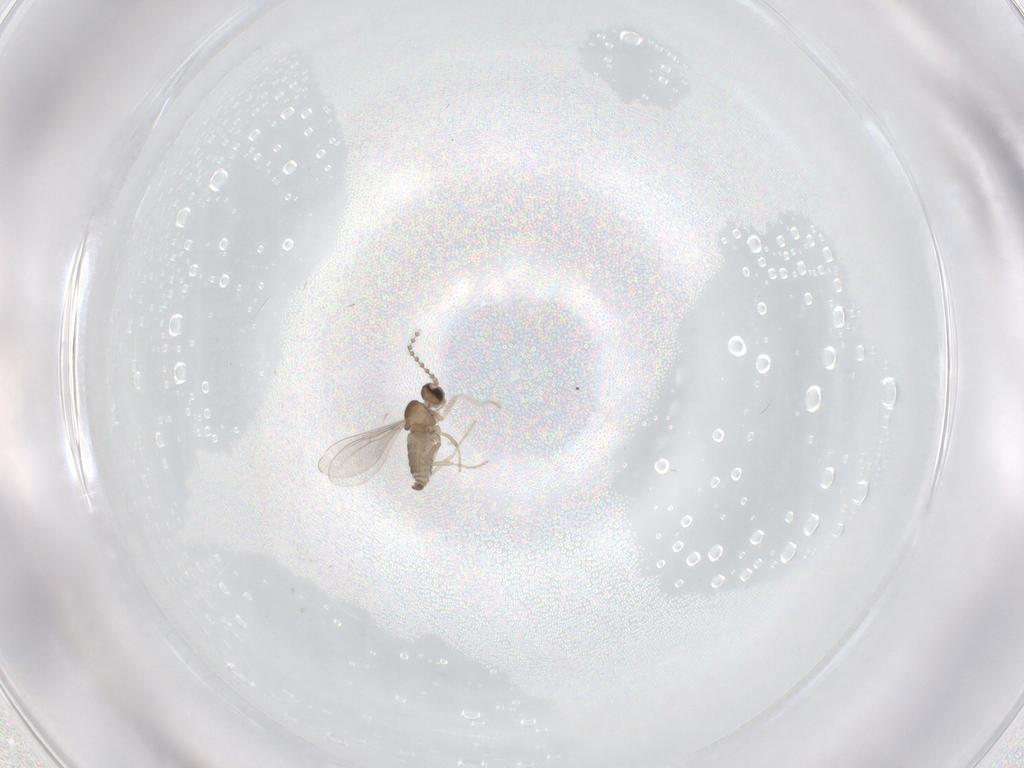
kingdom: Animalia
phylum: Arthropoda
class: Insecta
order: Diptera
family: Cecidomyiidae
